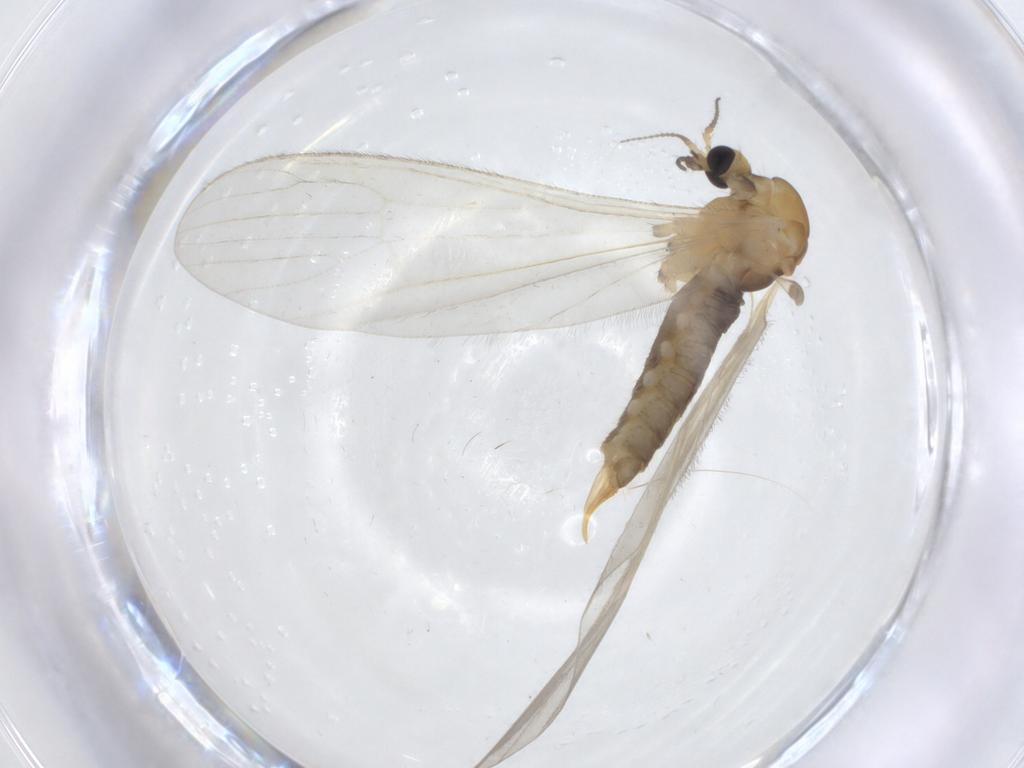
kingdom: Animalia
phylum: Arthropoda
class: Insecta
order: Diptera
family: Limoniidae
